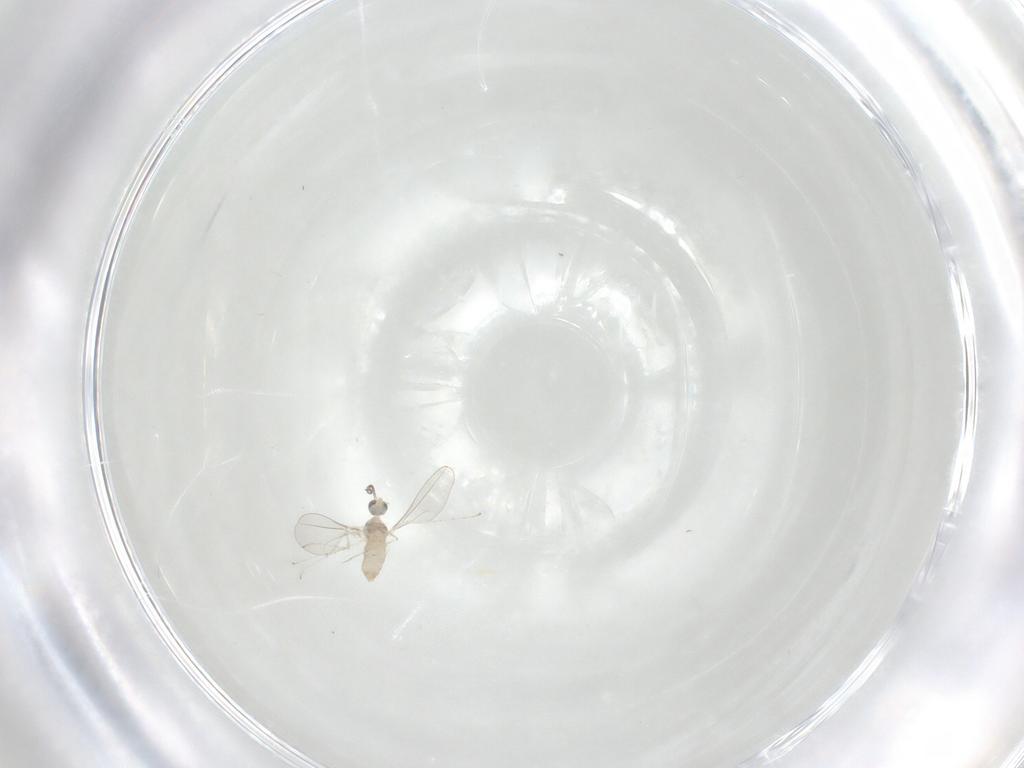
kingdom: Animalia
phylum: Arthropoda
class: Insecta
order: Diptera
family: Cecidomyiidae
